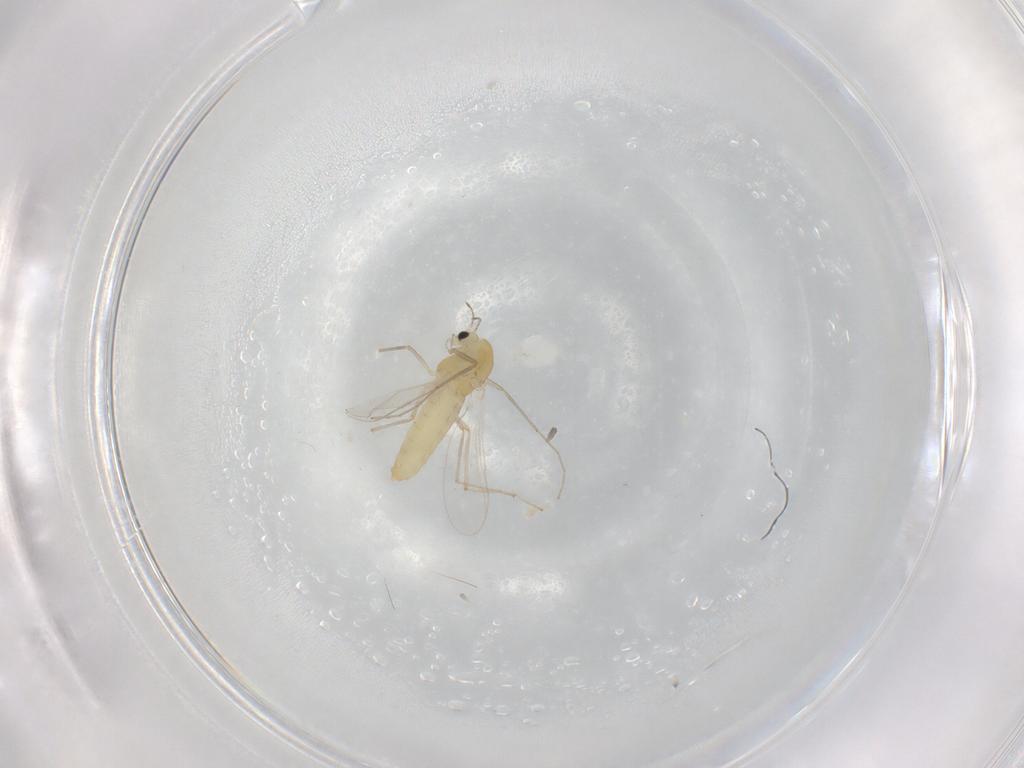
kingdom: Animalia
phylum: Arthropoda
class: Insecta
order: Diptera
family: Chironomidae
